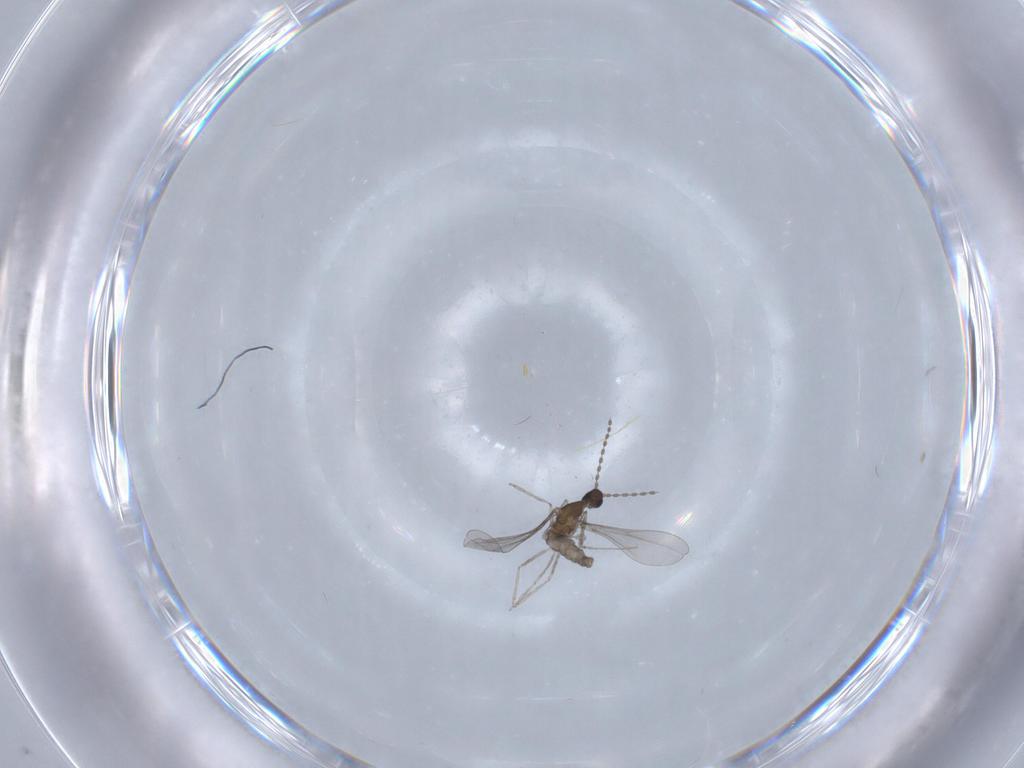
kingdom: Animalia
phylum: Arthropoda
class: Insecta
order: Diptera
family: Cecidomyiidae
